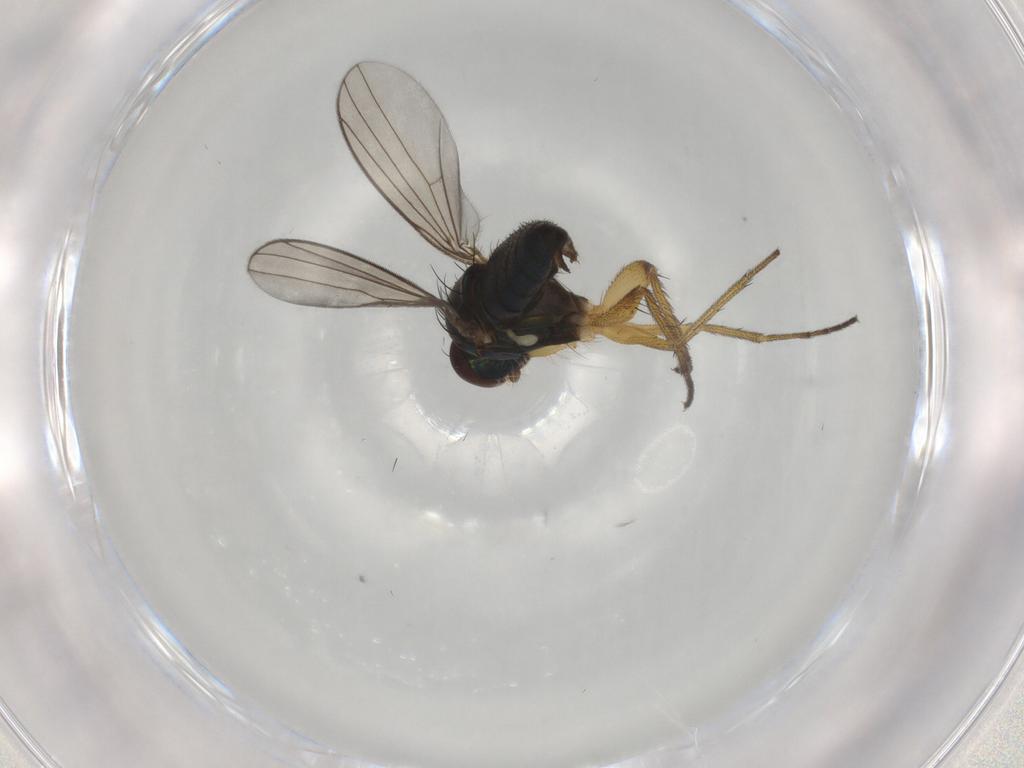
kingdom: Animalia
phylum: Arthropoda
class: Insecta
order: Diptera
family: Dolichopodidae
